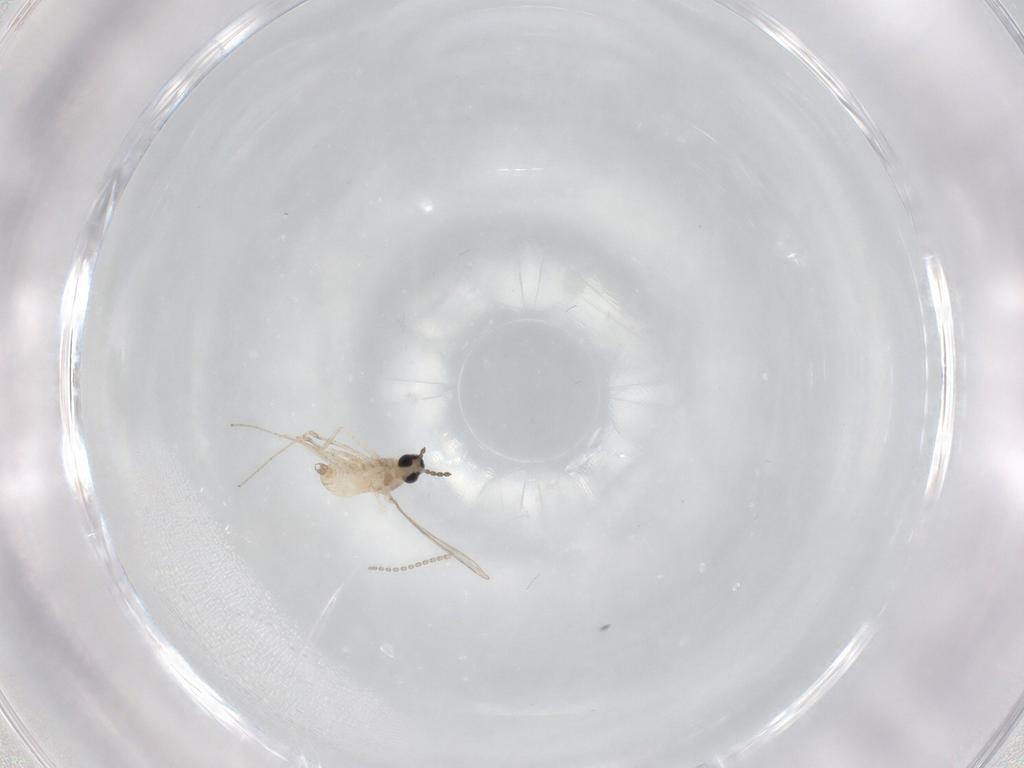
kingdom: Animalia
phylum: Arthropoda
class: Insecta
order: Diptera
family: Cecidomyiidae
